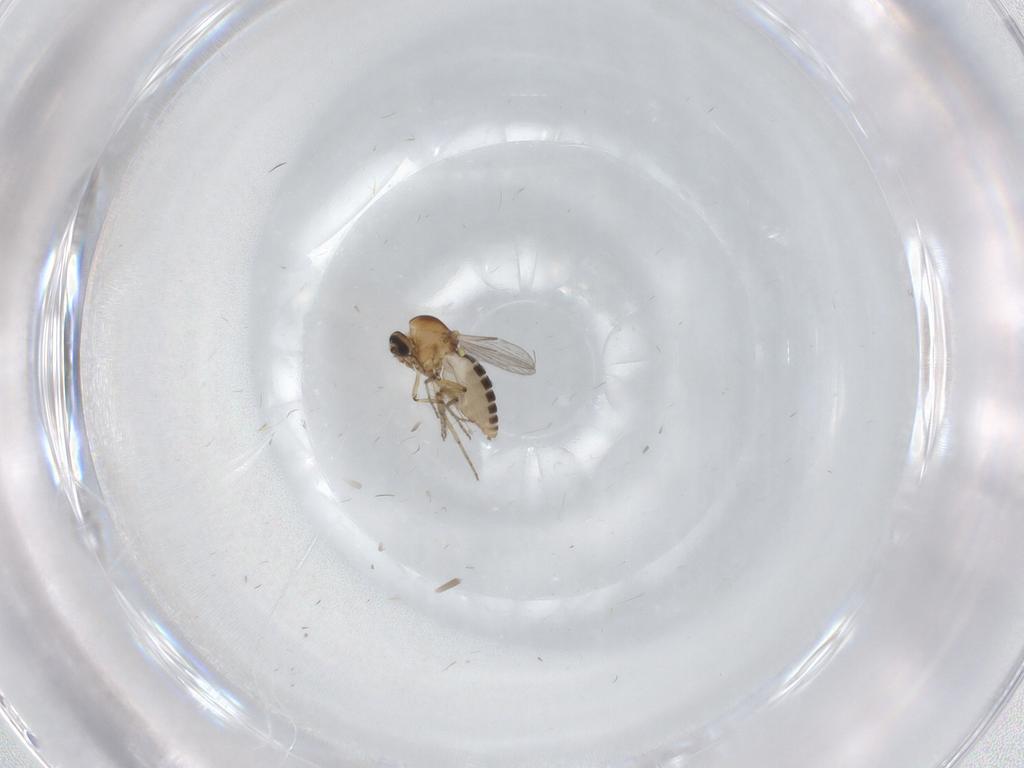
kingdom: Animalia
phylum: Arthropoda
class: Insecta
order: Diptera
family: Ceratopogonidae
